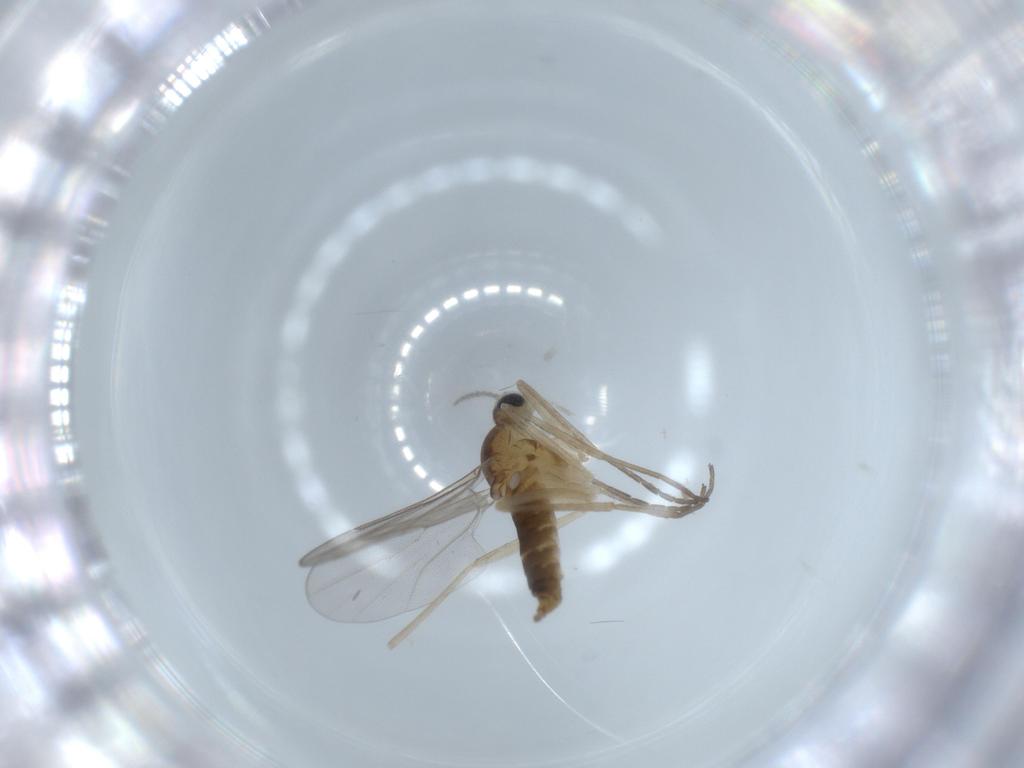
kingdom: Animalia
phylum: Arthropoda
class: Insecta
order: Diptera
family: Cecidomyiidae
